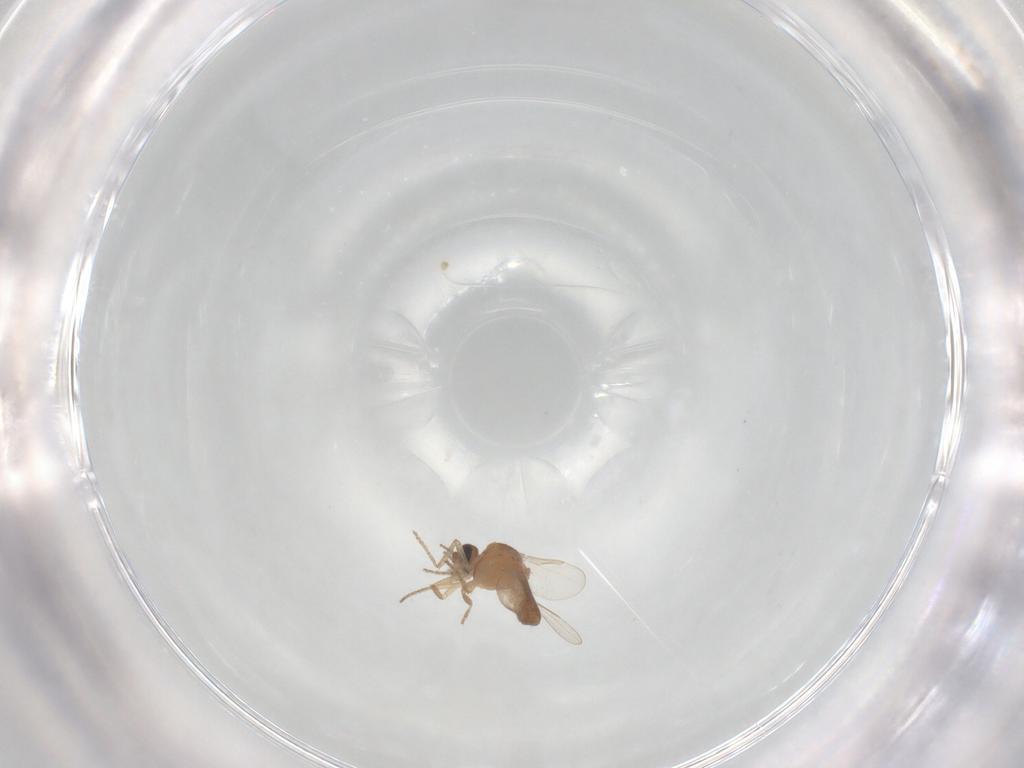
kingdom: Animalia
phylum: Arthropoda
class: Insecta
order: Diptera
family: Ceratopogonidae
